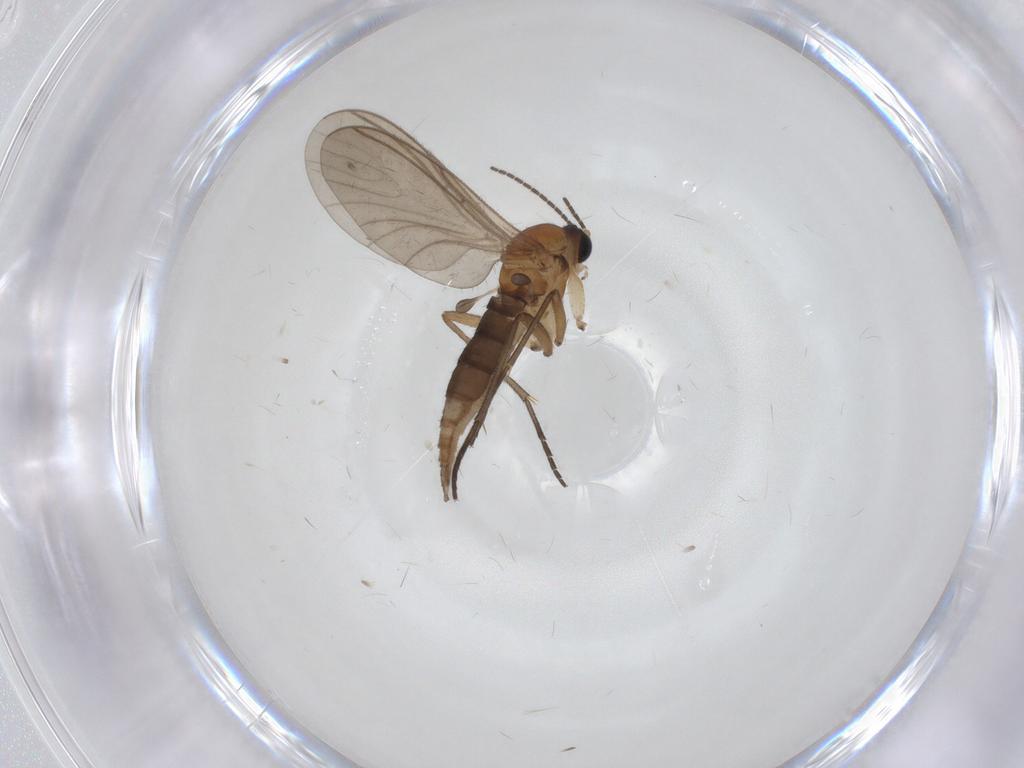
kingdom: Animalia
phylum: Arthropoda
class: Insecta
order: Diptera
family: Sciaridae
